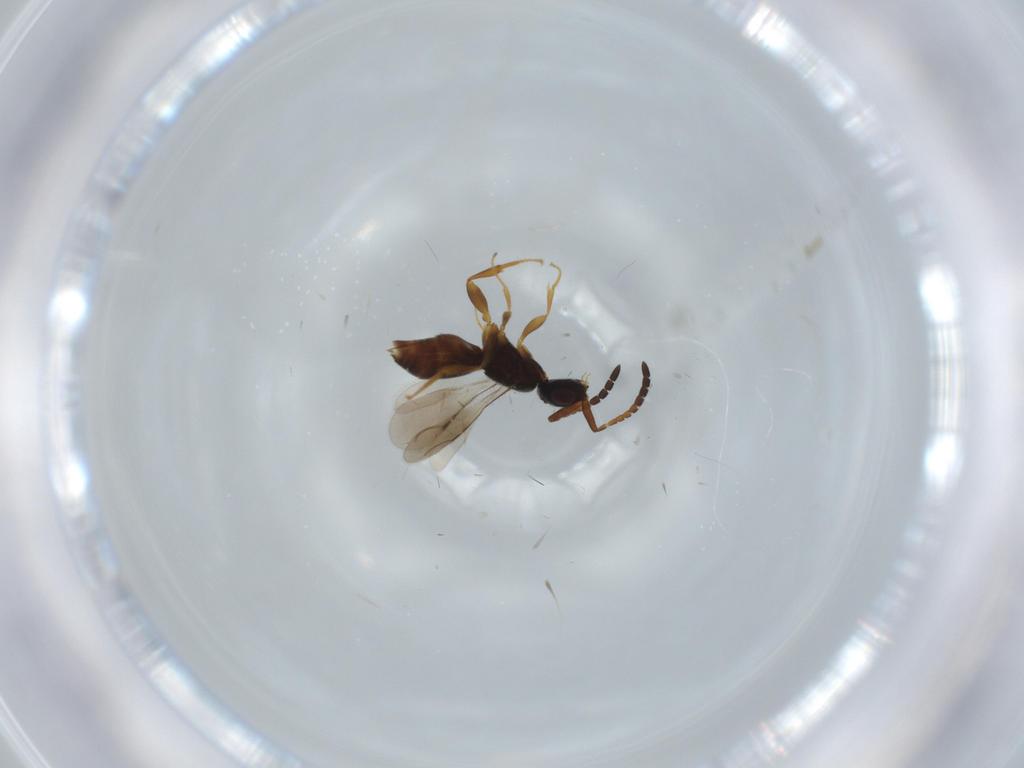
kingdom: Animalia
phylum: Arthropoda
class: Insecta
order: Hymenoptera
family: Ceraphronidae
